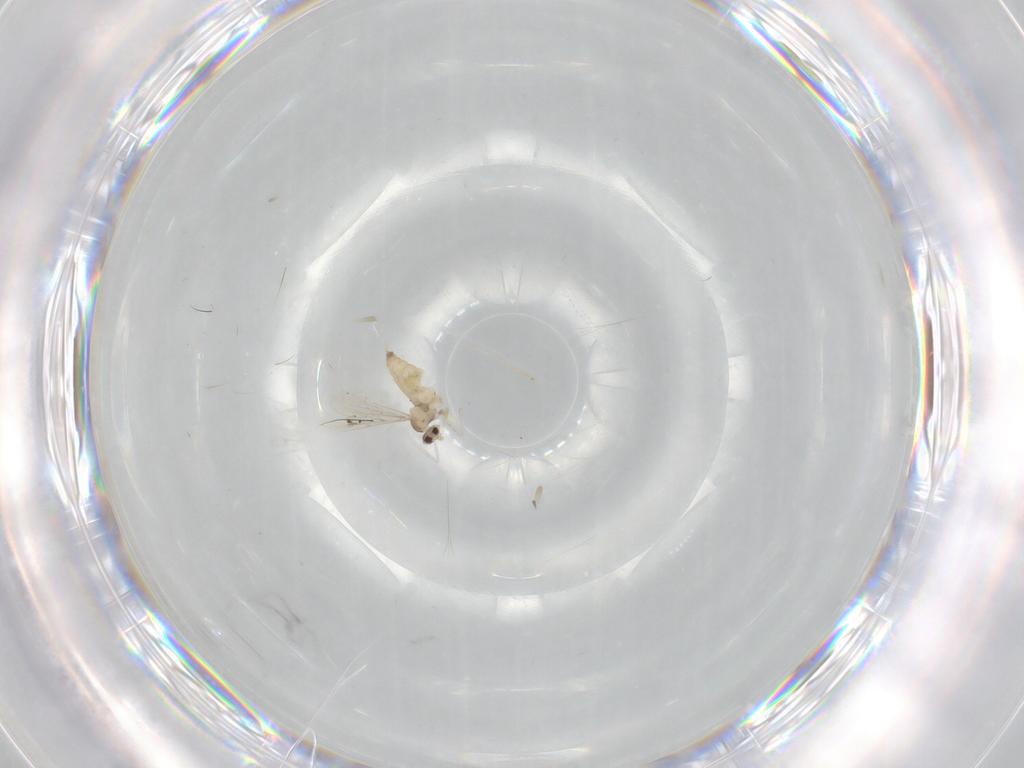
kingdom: Animalia
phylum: Arthropoda
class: Insecta
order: Diptera
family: Cecidomyiidae
